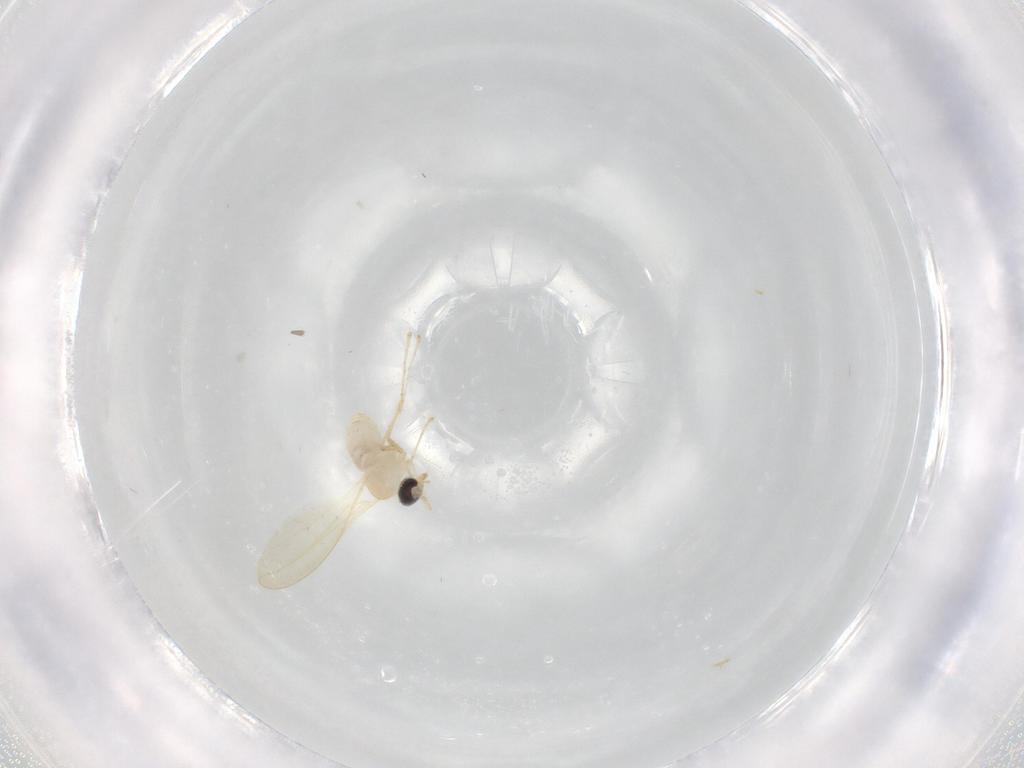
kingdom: Animalia
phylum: Arthropoda
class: Insecta
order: Diptera
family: Cecidomyiidae
